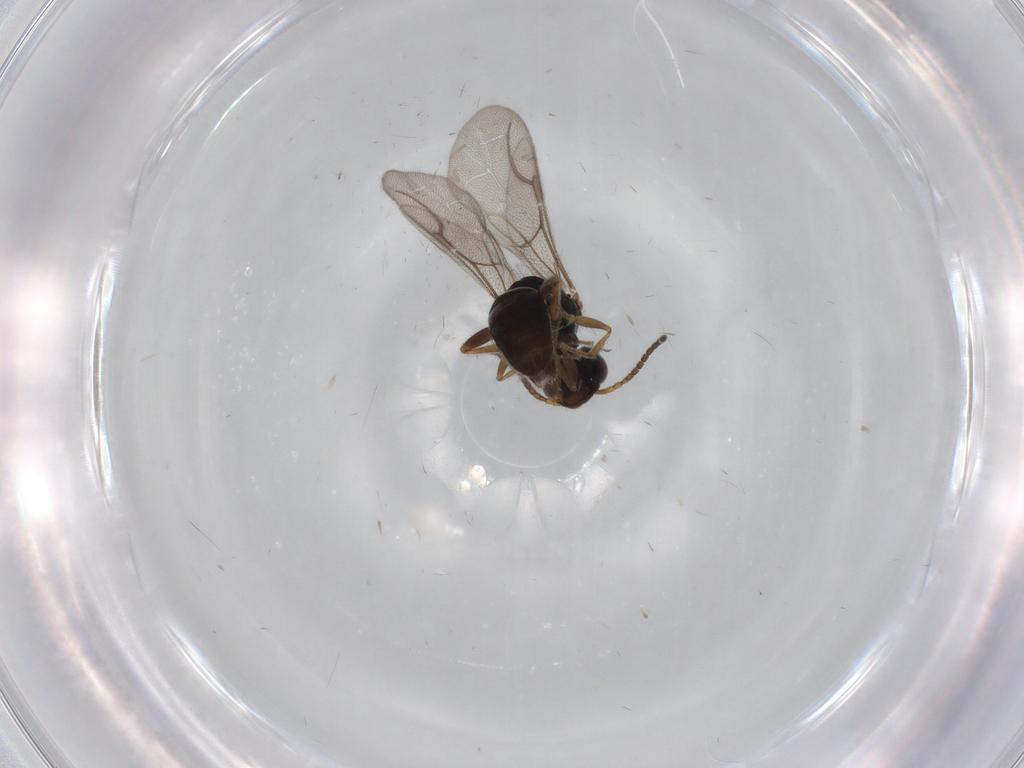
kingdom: Animalia
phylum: Arthropoda
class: Insecta
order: Hymenoptera
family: Bethylidae
